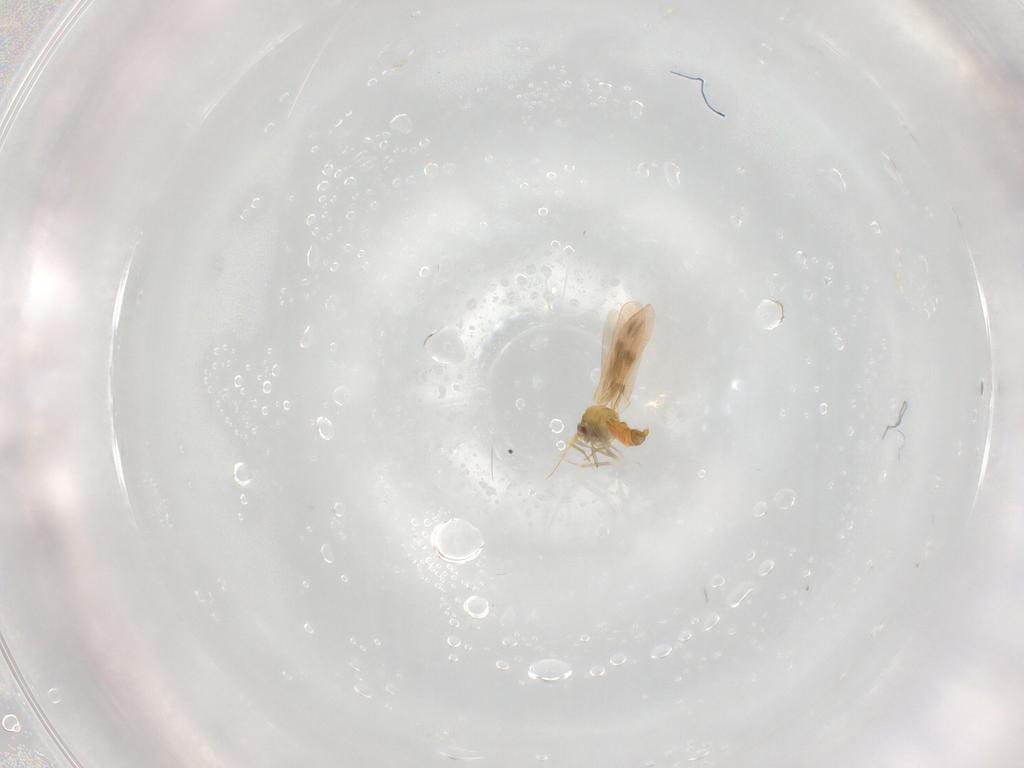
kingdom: Animalia
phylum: Arthropoda
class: Insecta
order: Hemiptera
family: Aleyrodidae
